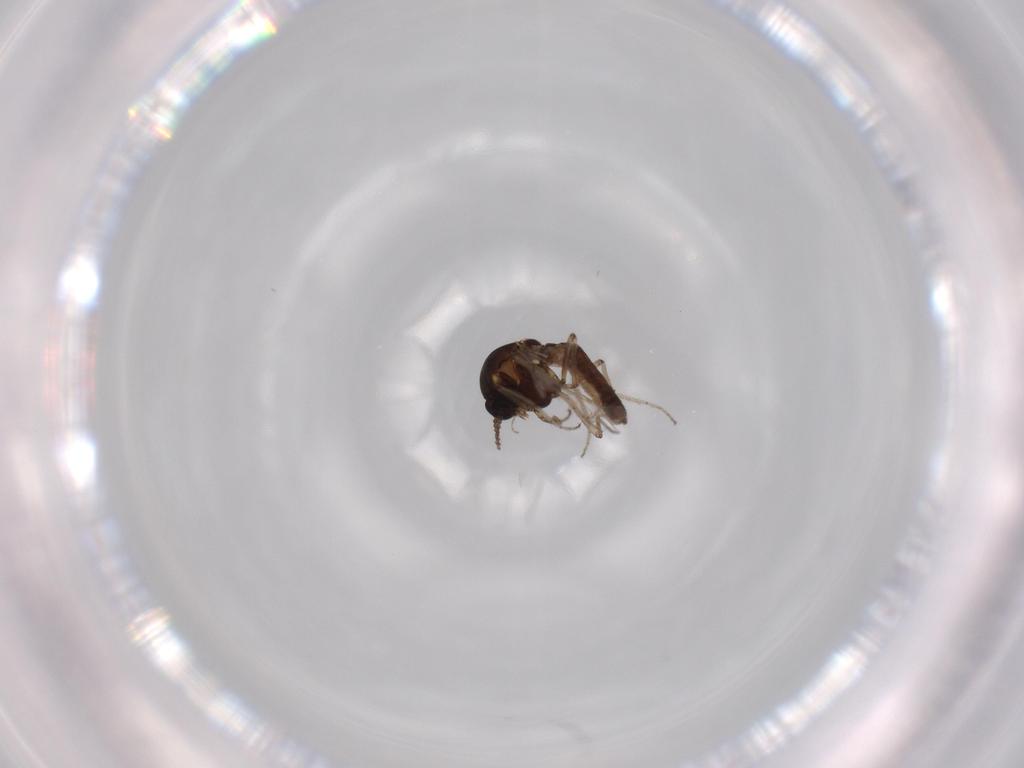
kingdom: Animalia
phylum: Arthropoda
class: Insecta
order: Diptera
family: Ceratopogonidae
